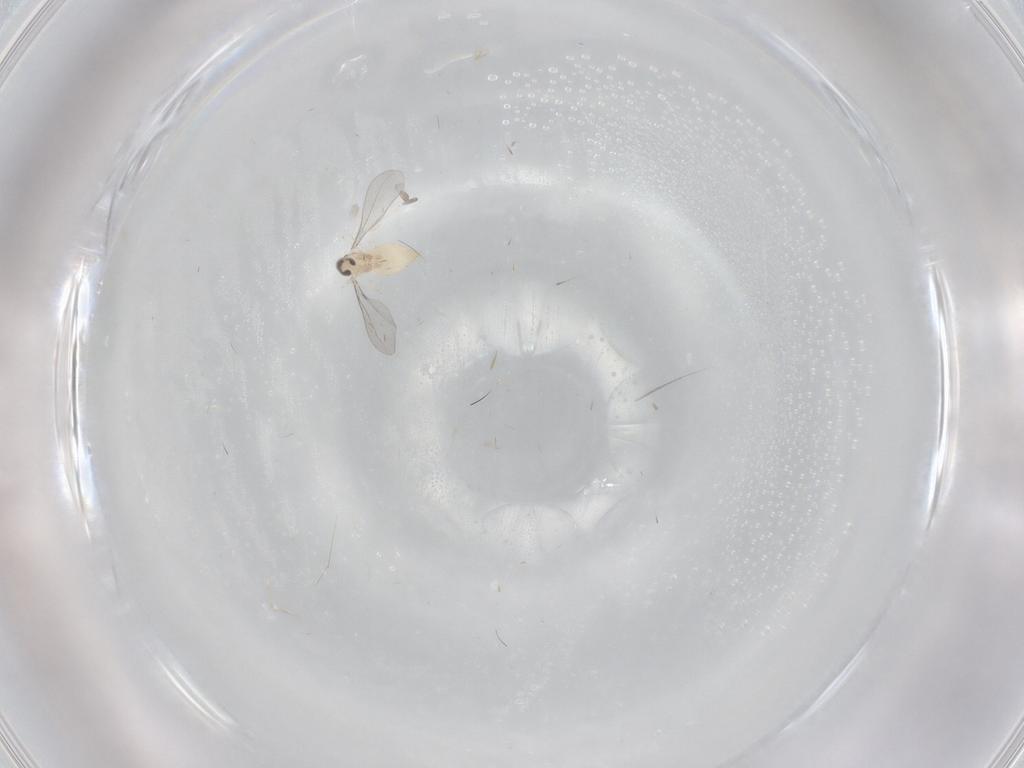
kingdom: Animalia
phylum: Arthropoda
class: Insecta
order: Diptera
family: Cecidomyiidae
